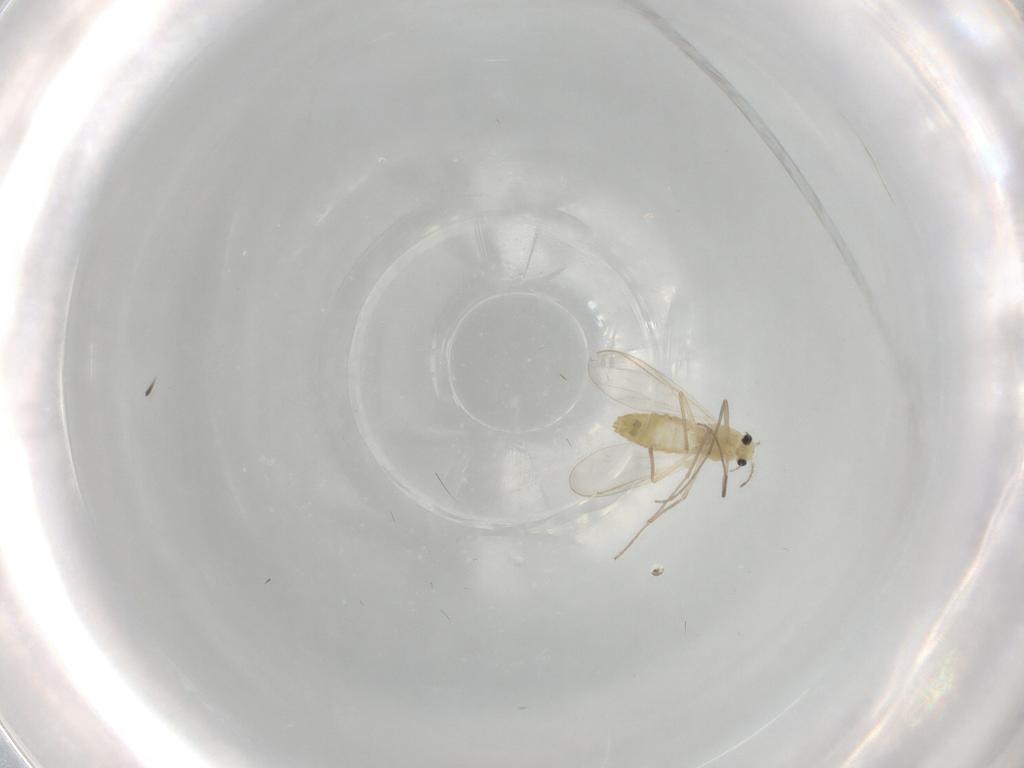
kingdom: Animalia
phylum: Arthropoda
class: Insecta
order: Diptera
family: Chironomidae
